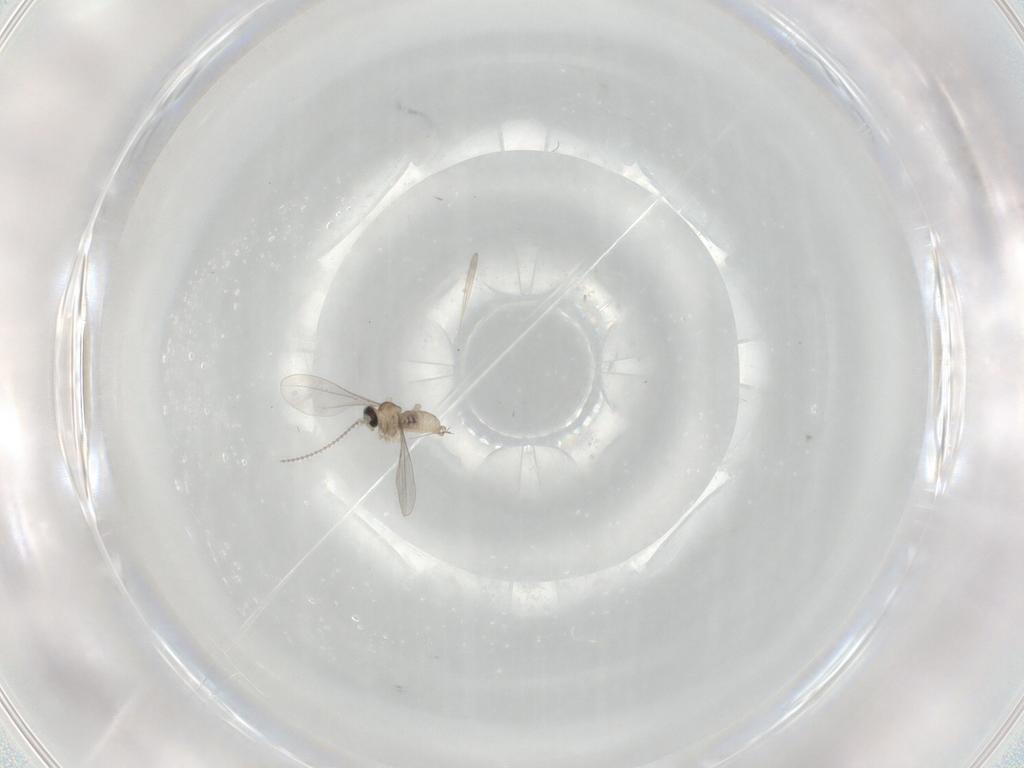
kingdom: Animalia
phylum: Arthropoda
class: Insecta
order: Diptera
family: Cecidomyiidae
